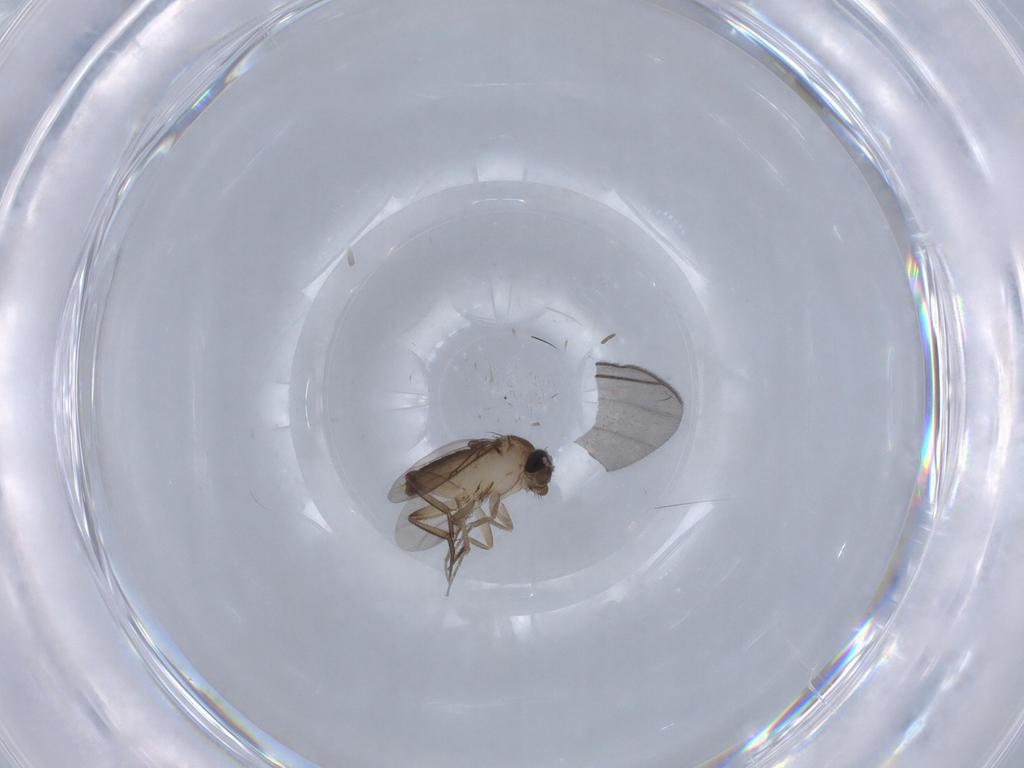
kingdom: Animalia
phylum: Arthropoda
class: Insecta
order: Diptera
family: Phoridae
